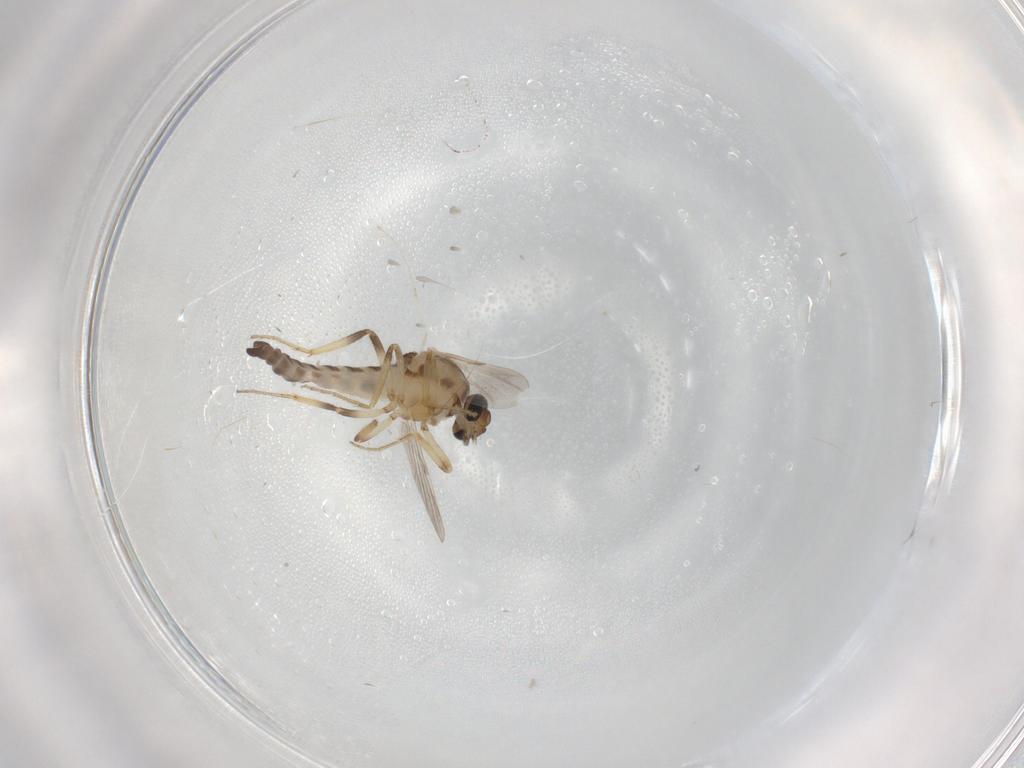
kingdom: Animalia
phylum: Arthropoda
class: Insecta
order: Diptera
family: Ceratopogonidae
